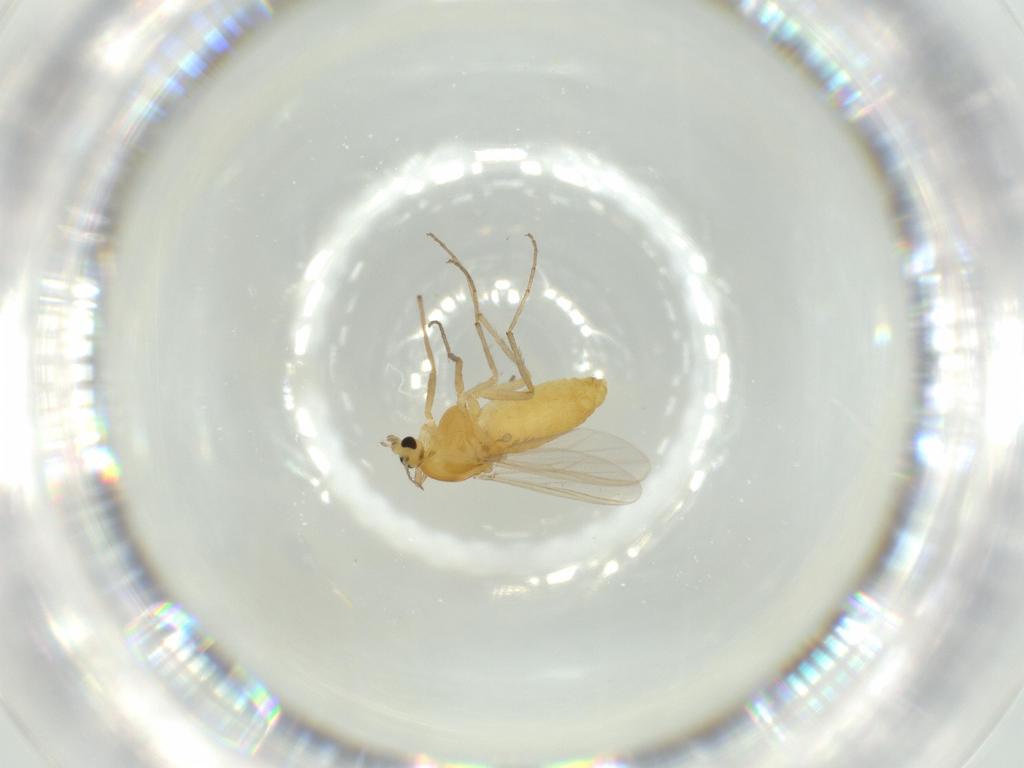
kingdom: Animalia
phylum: Arthropoda
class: Insecta
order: Diptera
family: Chironomidae
